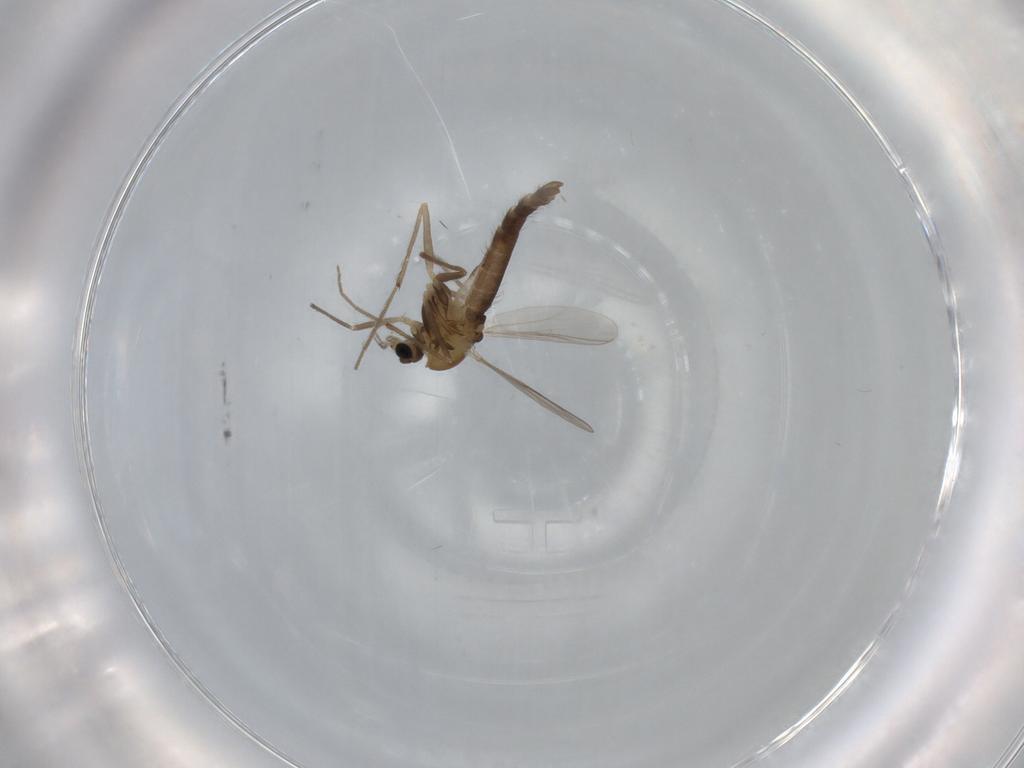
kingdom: Animalia
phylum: Arthropoda
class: Insecta
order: Diptera
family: Chironomidae
